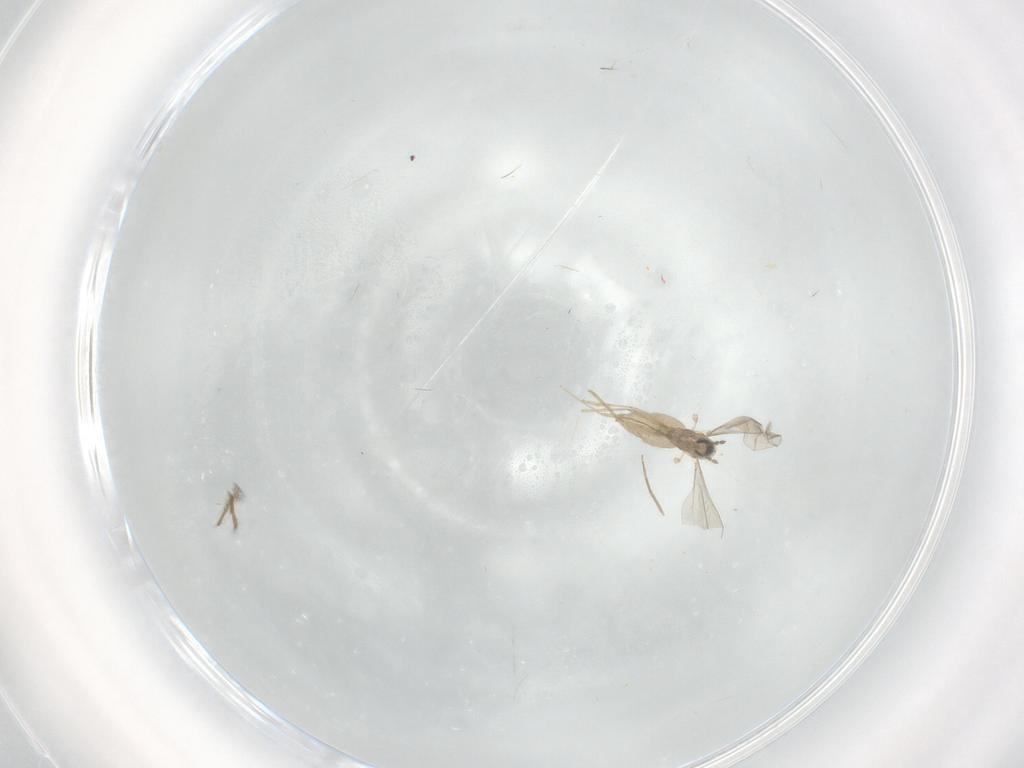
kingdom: Animalia
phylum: Arthropoda
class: Insecta
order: Diptera
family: Cecidomyiidae
